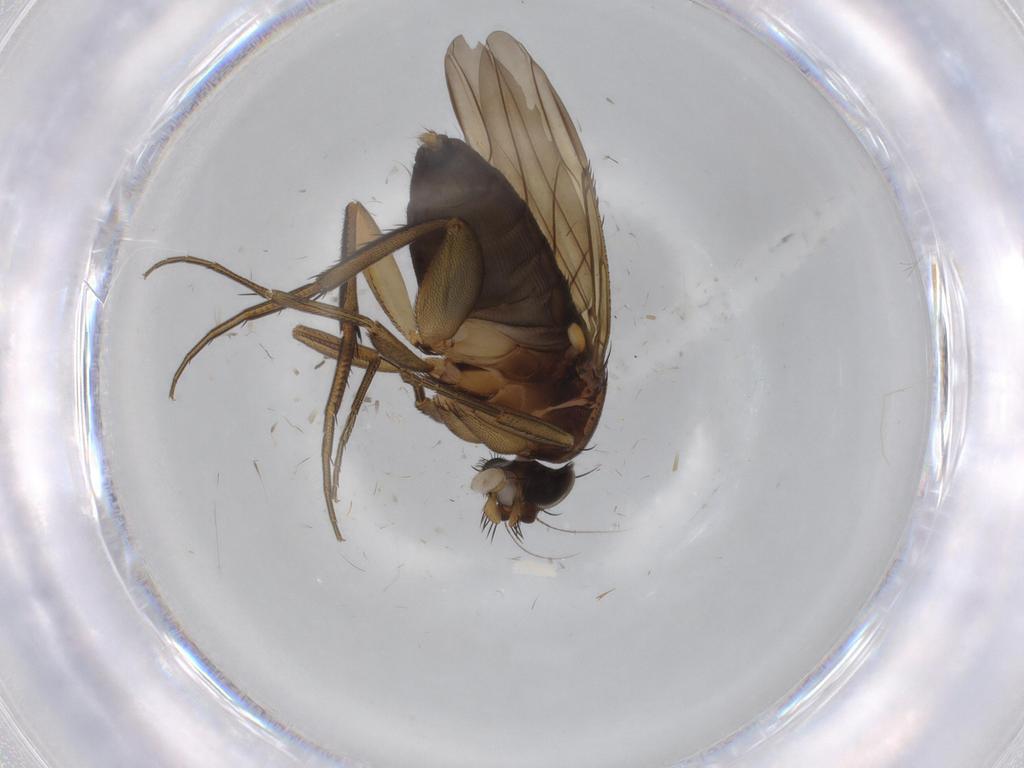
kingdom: Animalia
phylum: Arthropoda
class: Insecta
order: Diptera
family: Phoridae
